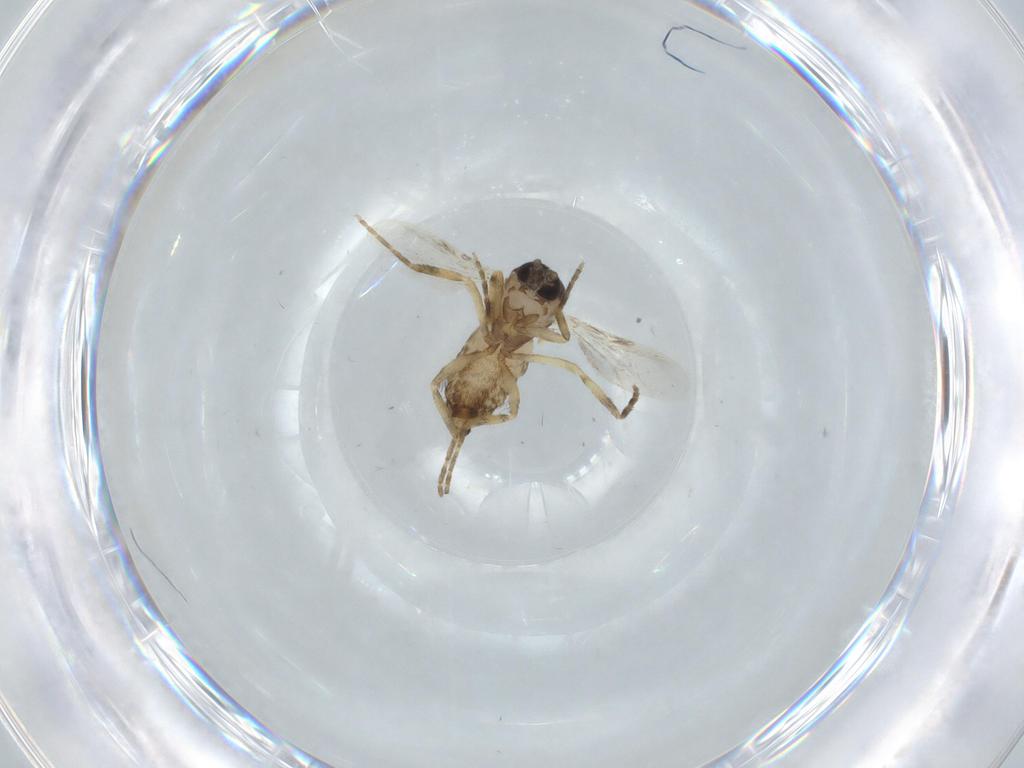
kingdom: Animalia
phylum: Arthropoda
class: Insecta
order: Diptera
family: Ceratopogonidae
